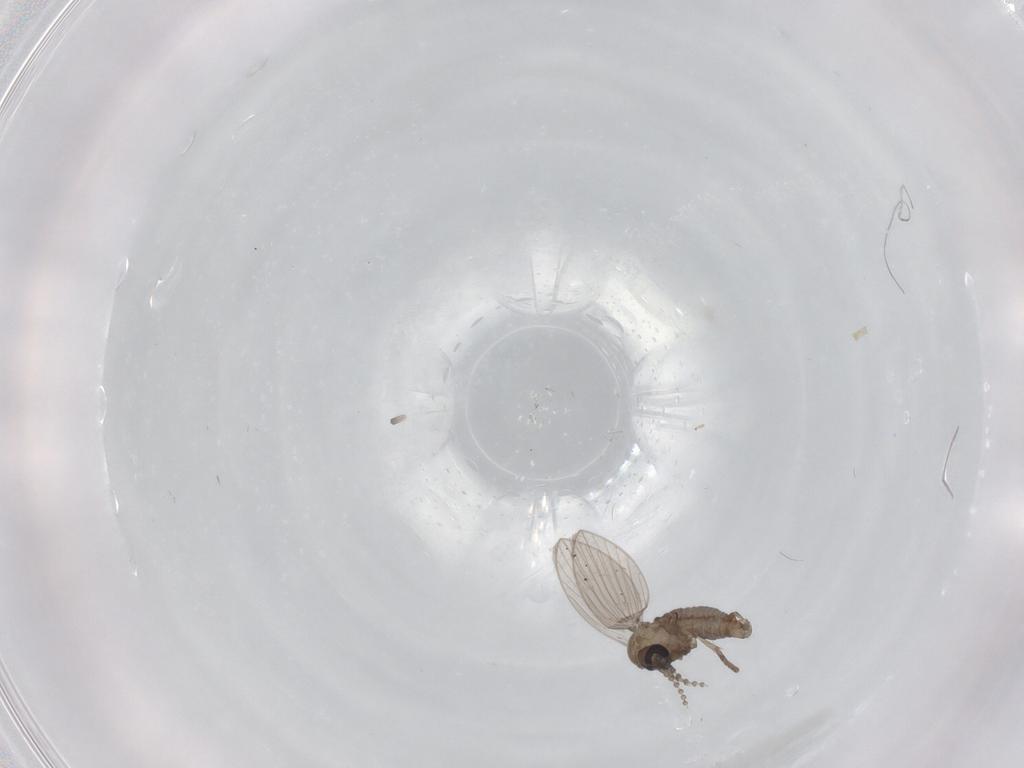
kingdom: Animalia
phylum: Arthropoda
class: Insecta
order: Diptera
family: Psychodidae
